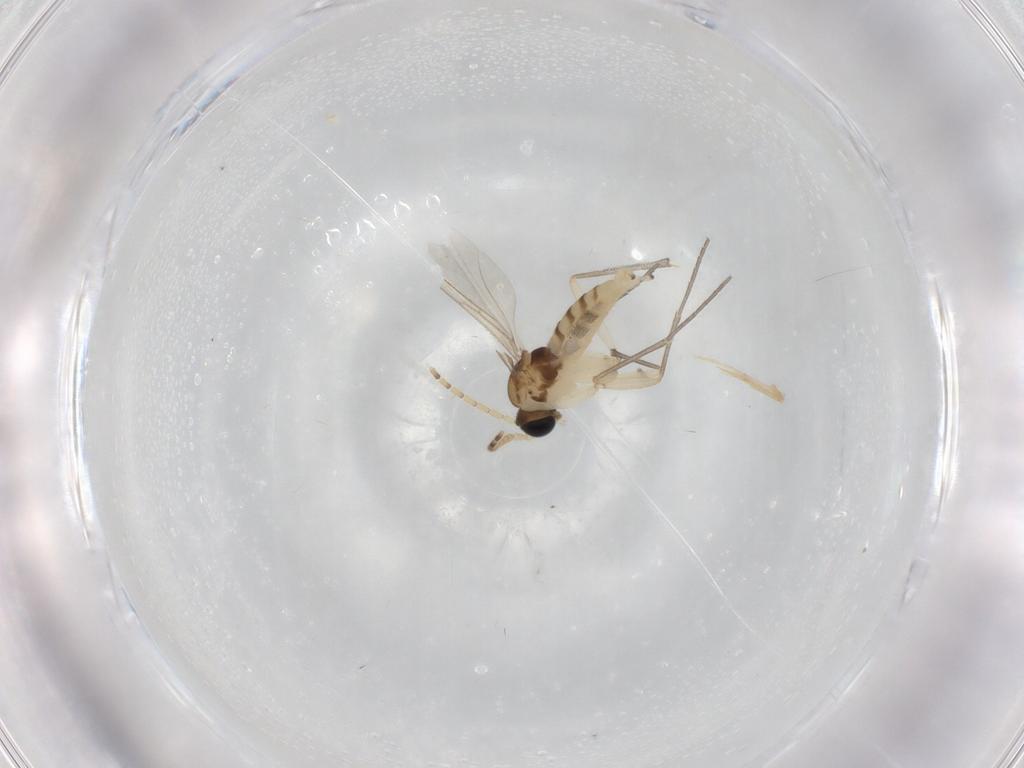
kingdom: Animalia
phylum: Arthropoda
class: Insecta
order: Diptera
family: Sciaridae
